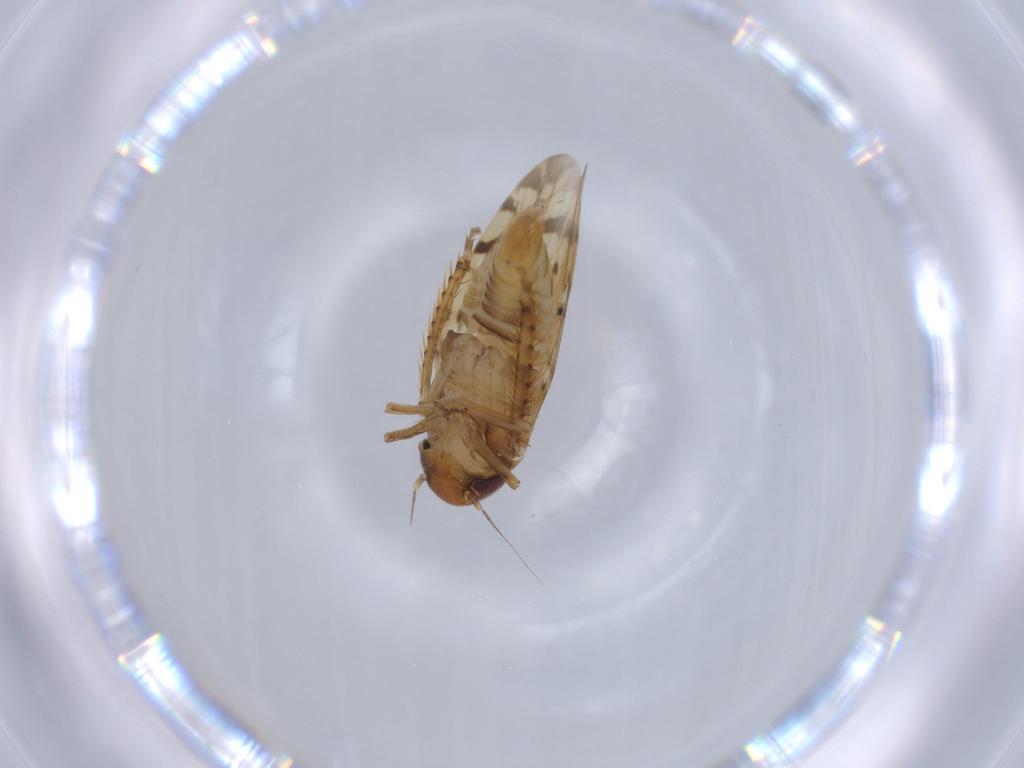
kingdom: Animalia
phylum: Arthropoda
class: Insecta
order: Hemiptera
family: Cicadellidae
